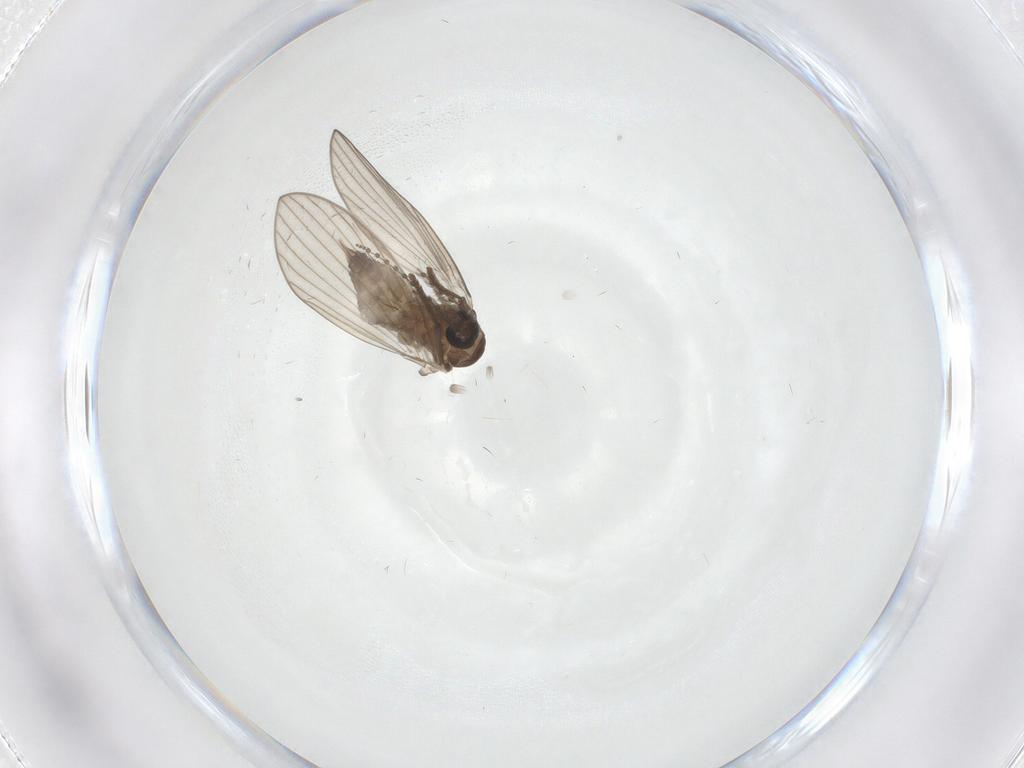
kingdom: Animalia
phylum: Arthropoda
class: Insecta
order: Diptera
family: Psychodidae
